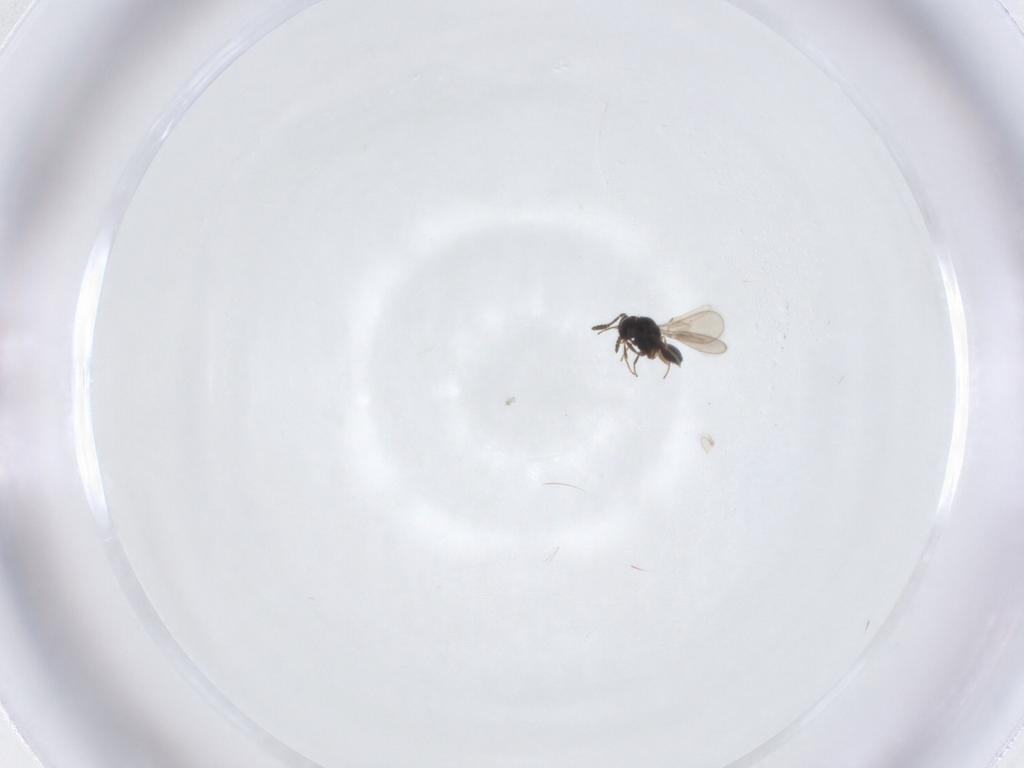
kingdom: Animalia
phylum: Arthropoda
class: Insecta
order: Hymenoptera
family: Scelionidae
